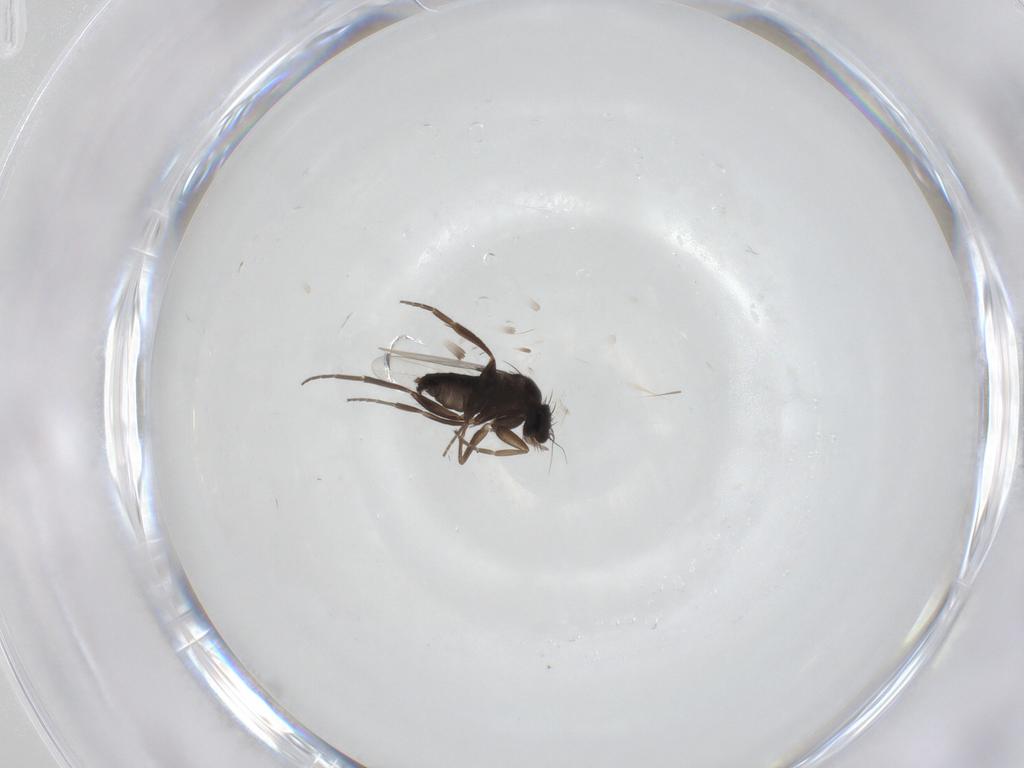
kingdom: Animalia
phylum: Arthropoda
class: Insecta
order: Diptera
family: Phoridae
